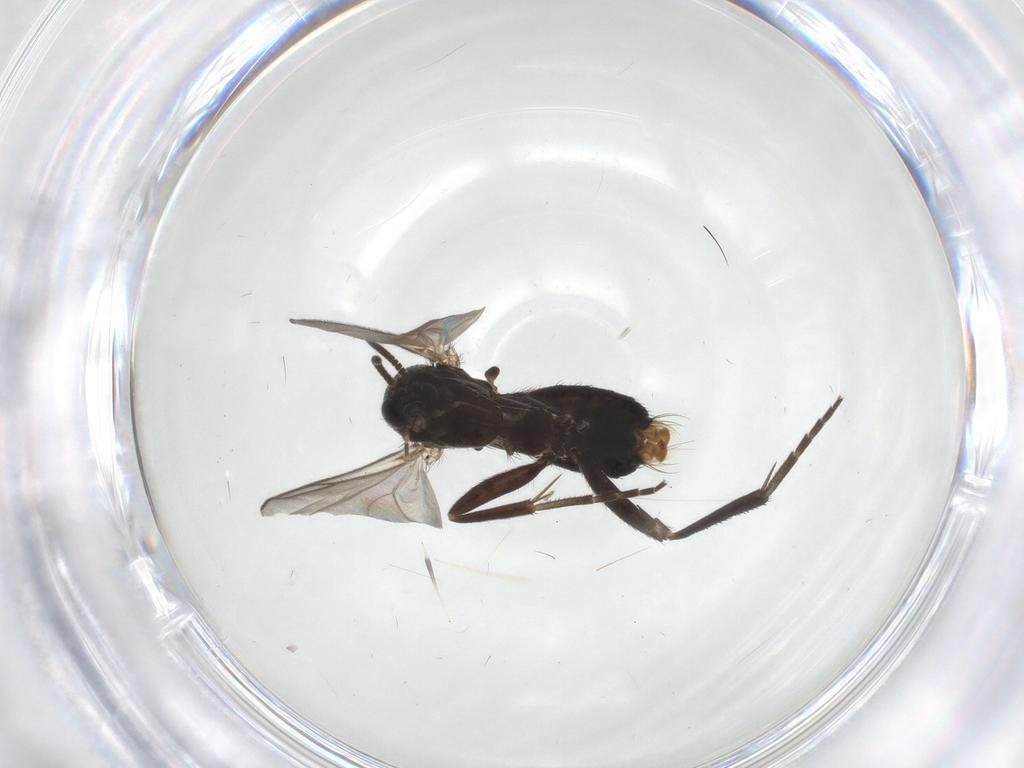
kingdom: Animalia
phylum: Arthropoda
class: Insecta
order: Diptera
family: Mycetophilidae
